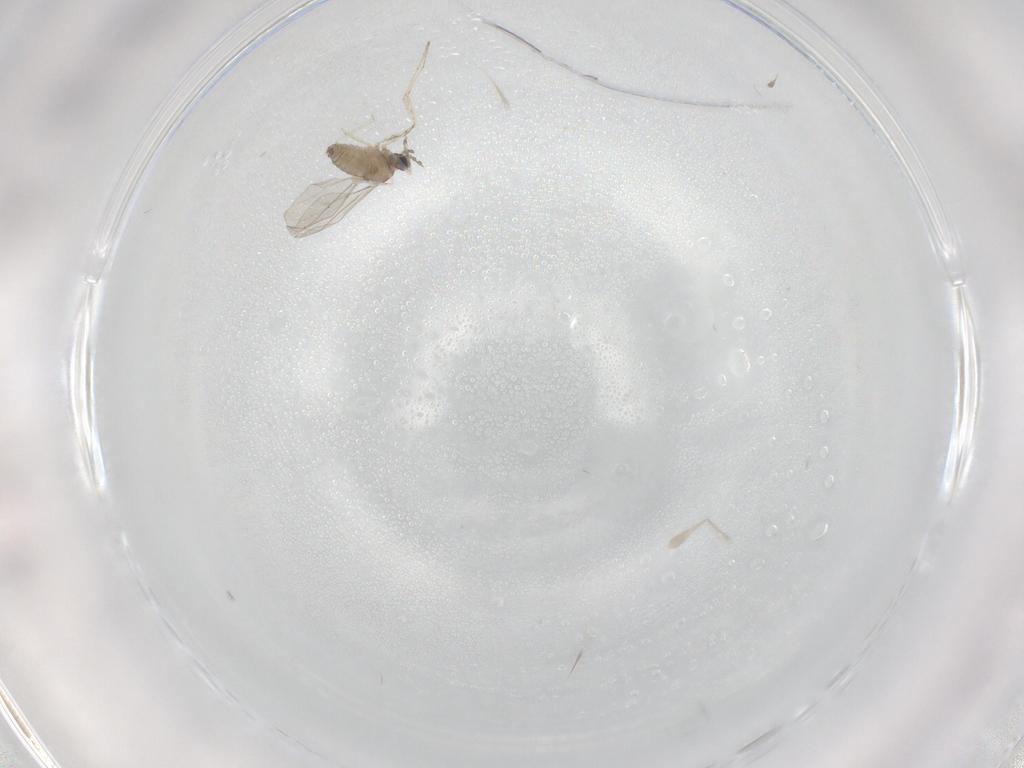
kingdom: Animalia
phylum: Arthropoda
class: Insecta
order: Diptera
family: Cecidomyiidae
